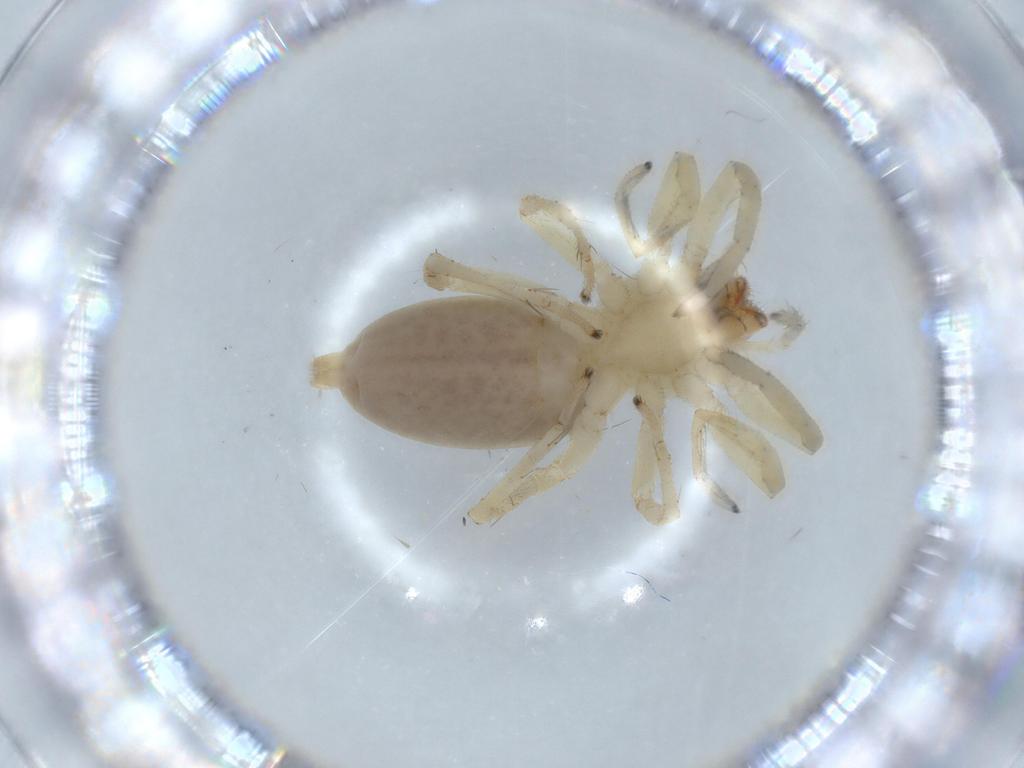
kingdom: Animalia
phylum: Arthropoda
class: Arachnida
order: Araneae
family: Linyphiidae
